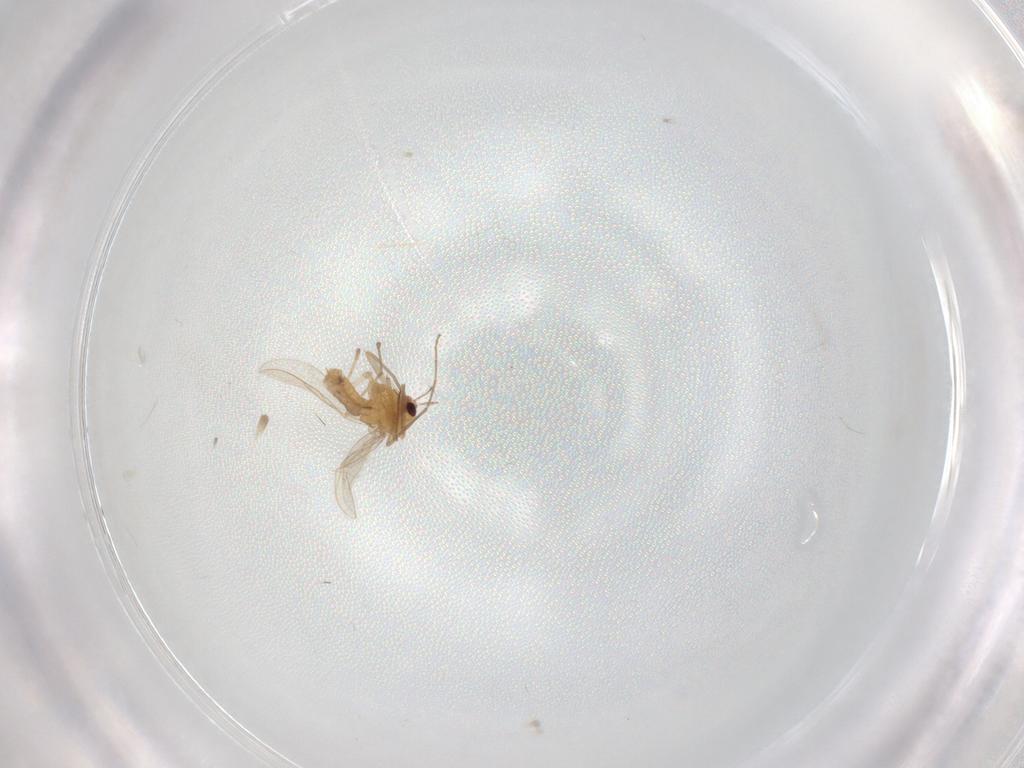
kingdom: Animalia
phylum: Arthropoda
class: Insecta
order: Diptera
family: Chironomidae
